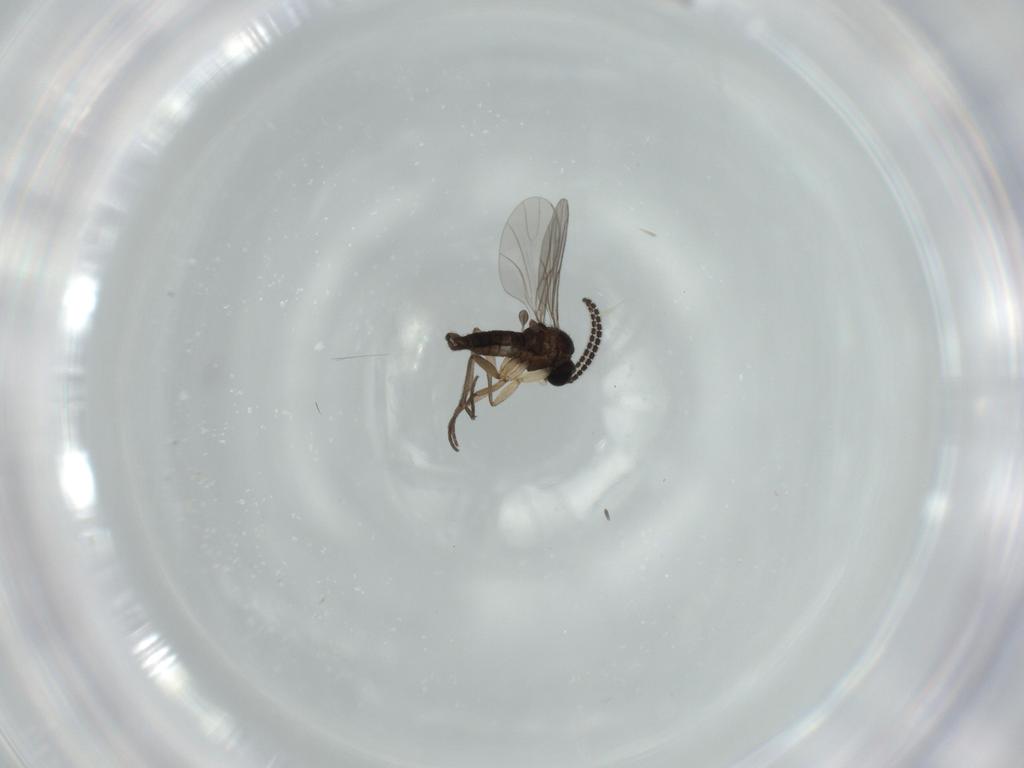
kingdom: Animalia
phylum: Arthropoda
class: Insecta
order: Diptera
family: Sciaridae
